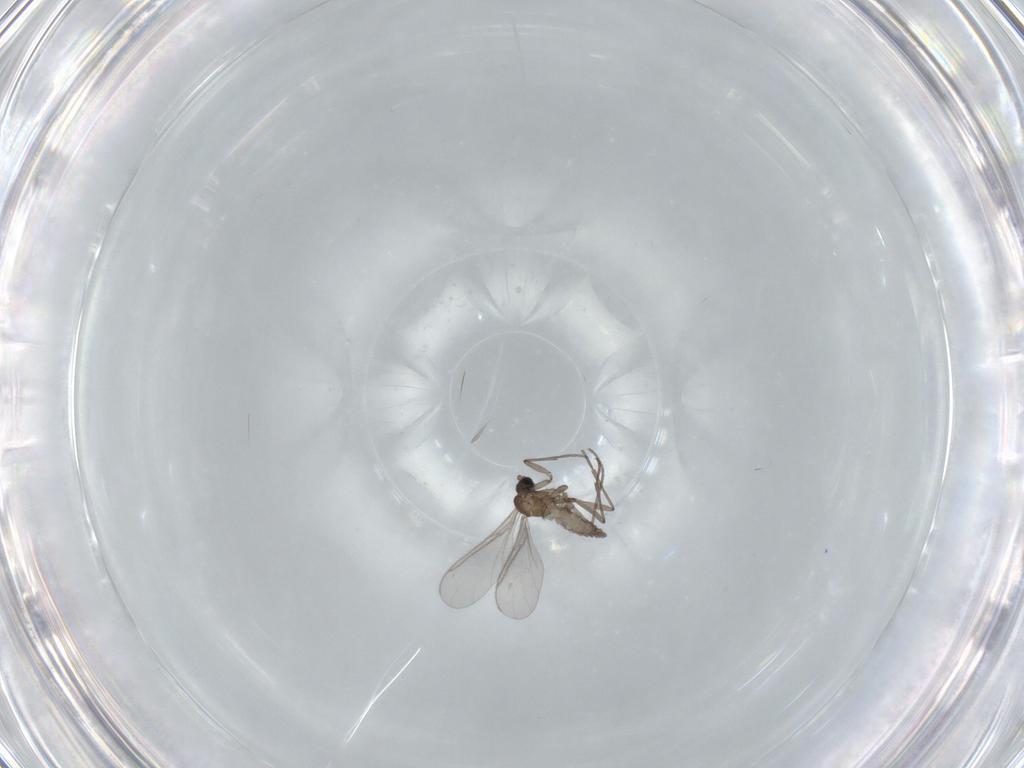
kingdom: Animalia
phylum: Arthropoda
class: Insecta
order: Diptera
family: Sciaridae
